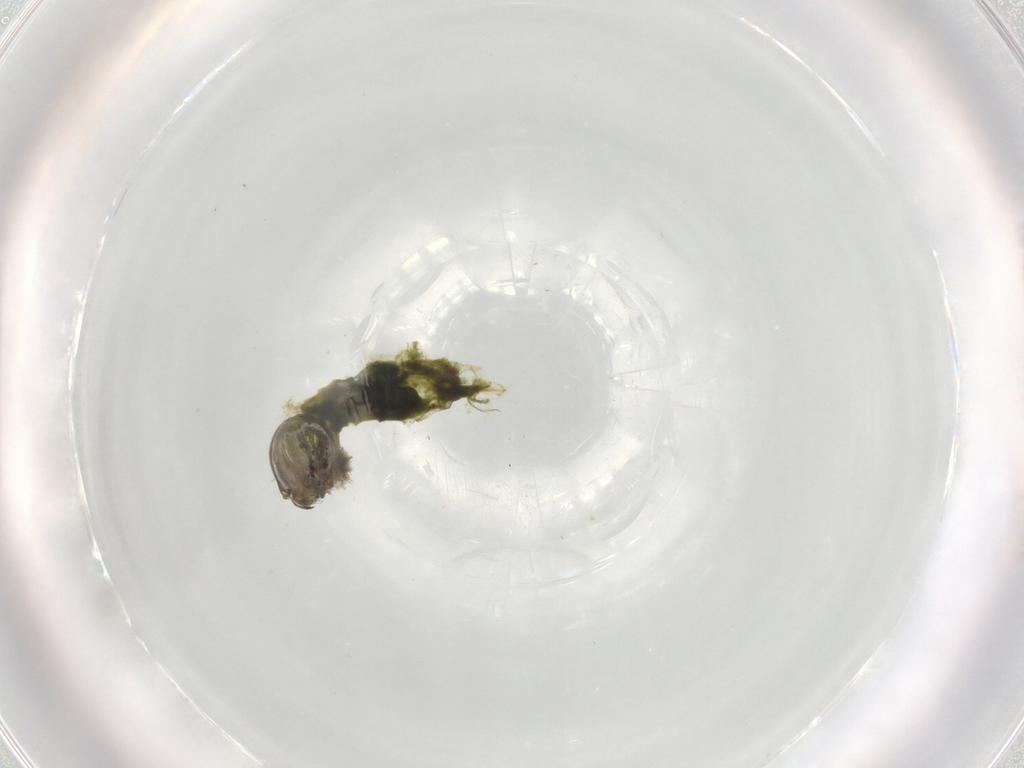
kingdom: Animalia
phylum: Arthropoda
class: Insecta
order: Diptera
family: Chironomidae
